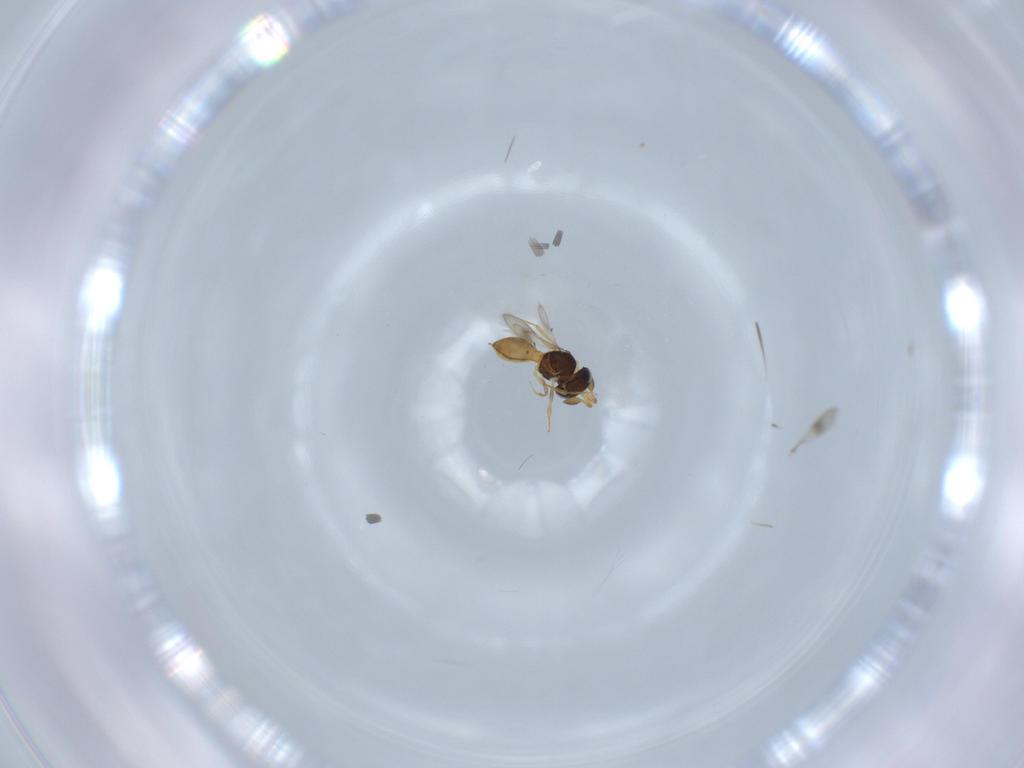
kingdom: Animalia
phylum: Arthropoda
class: Insecta
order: Hymenoptera
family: Scelionidae
